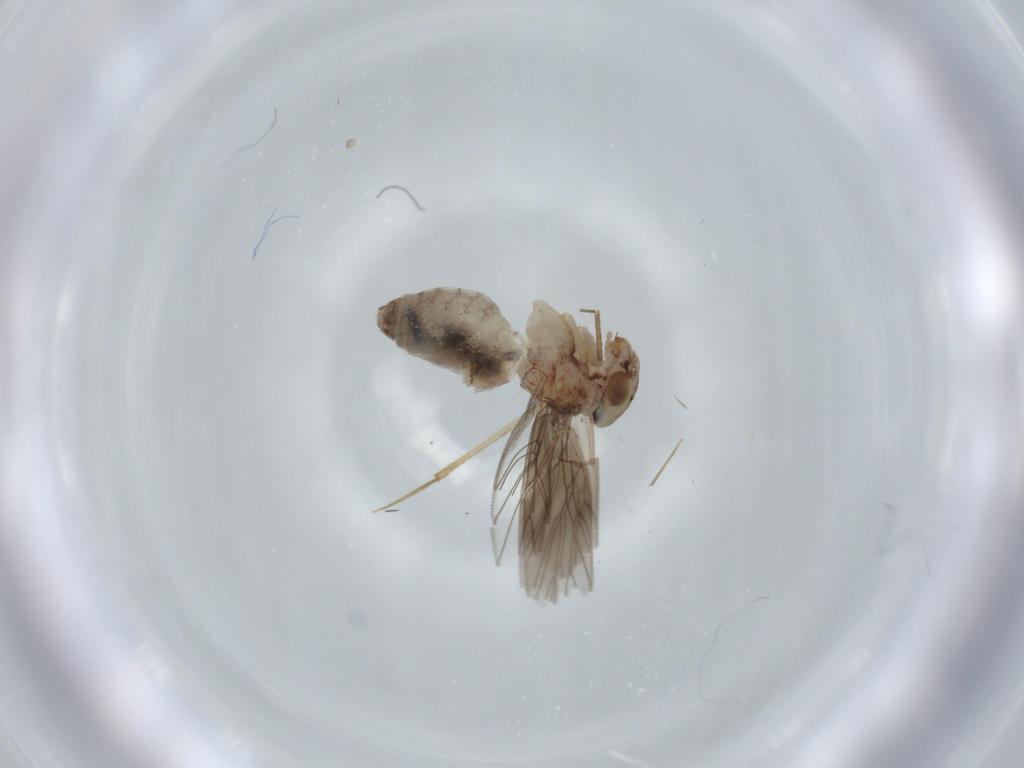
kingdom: Animalia
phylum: Arthropoda
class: Insecta
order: Psocodea
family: Lepidopsocidae
